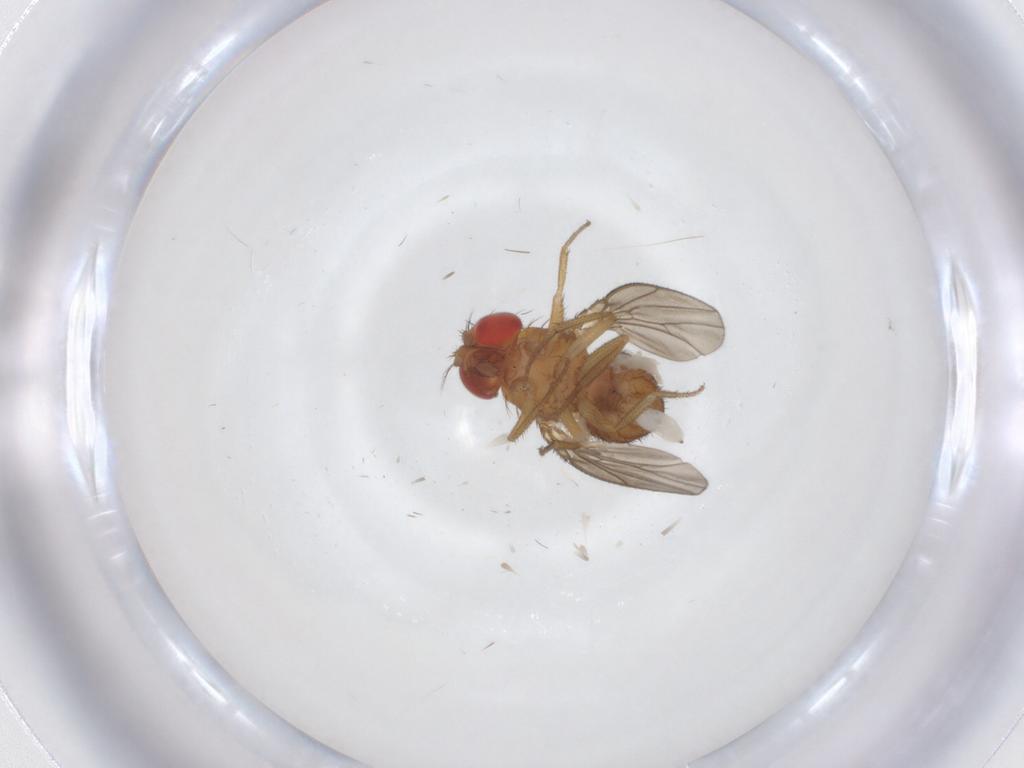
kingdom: Animalia
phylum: Arthropoda
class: Insecta
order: Diptera
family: Drosophilidae
